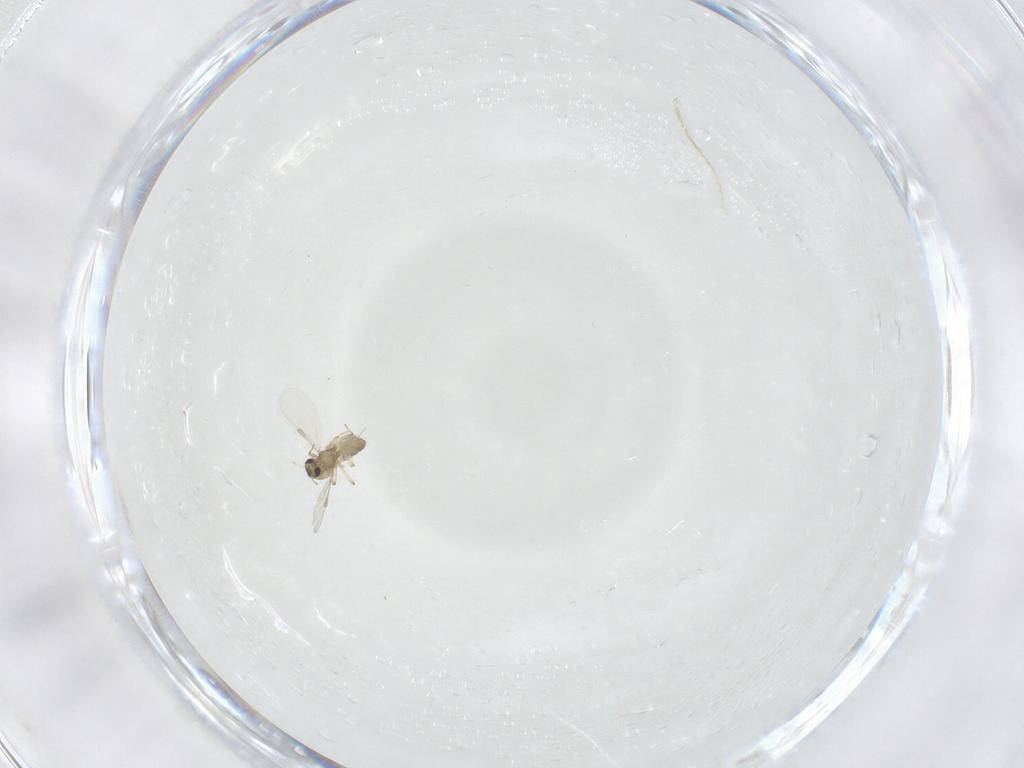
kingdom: Animalia
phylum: Arthropoda
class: Insecta
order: Diptera
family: Chironomidae
